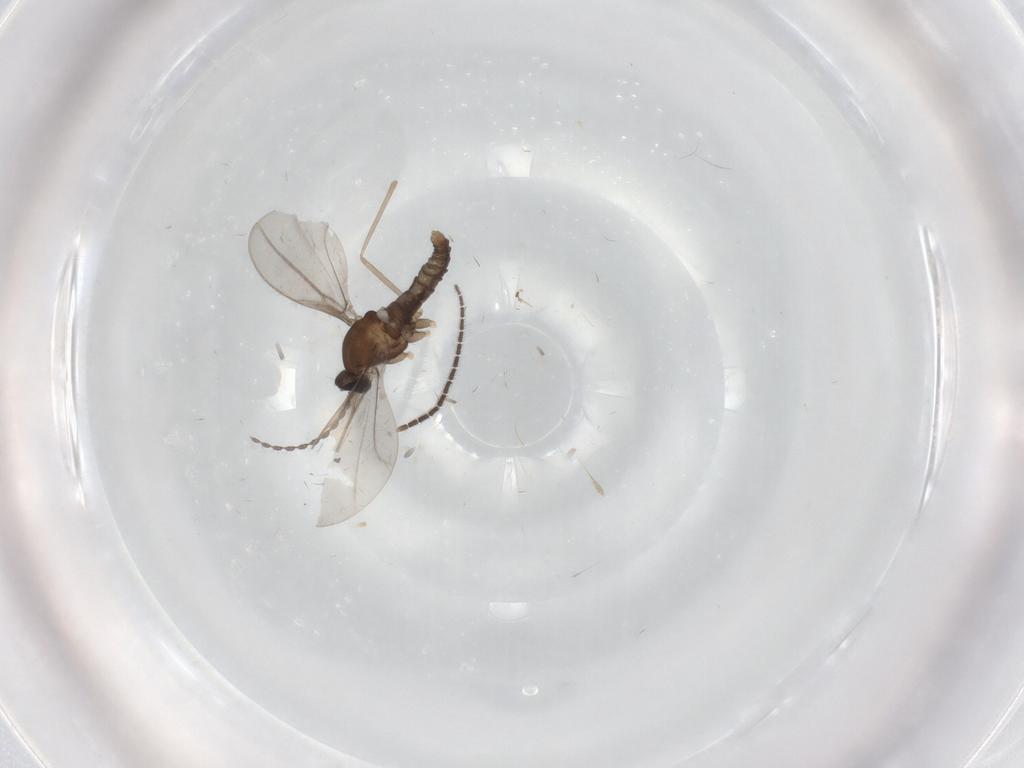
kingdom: Animalia
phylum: Arthropoda
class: Insecta
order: Diptera
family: Cecidomyiidae
